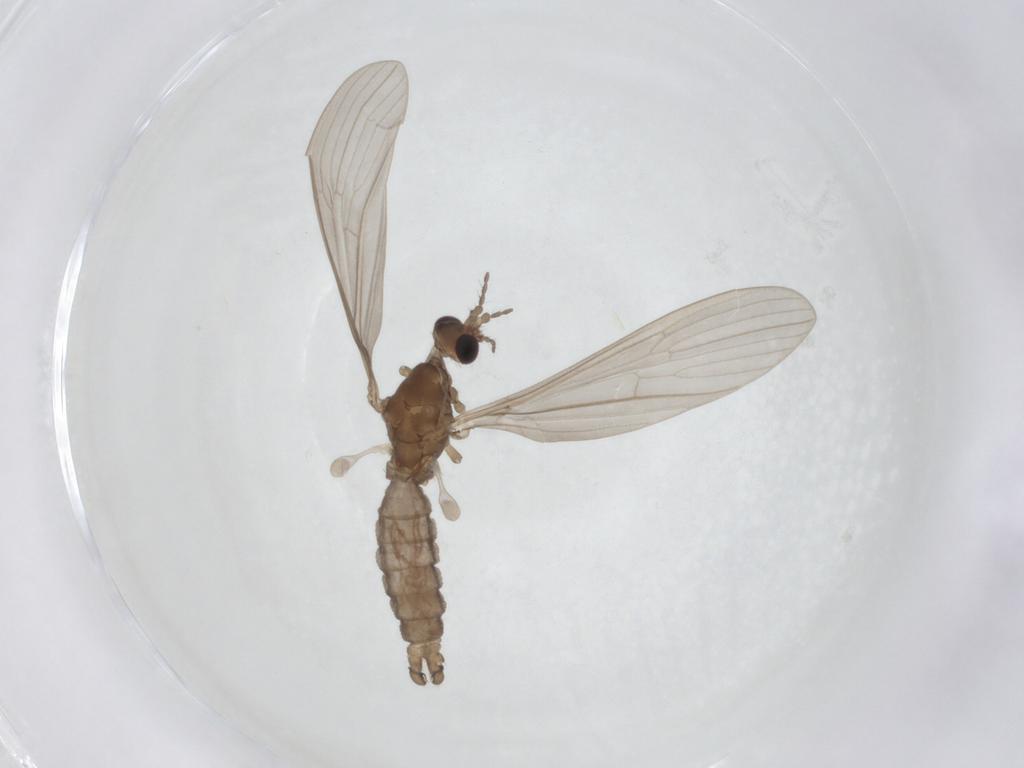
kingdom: Animalia
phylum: Arthropoda
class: Insecta
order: Diptera
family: Limoniidae
